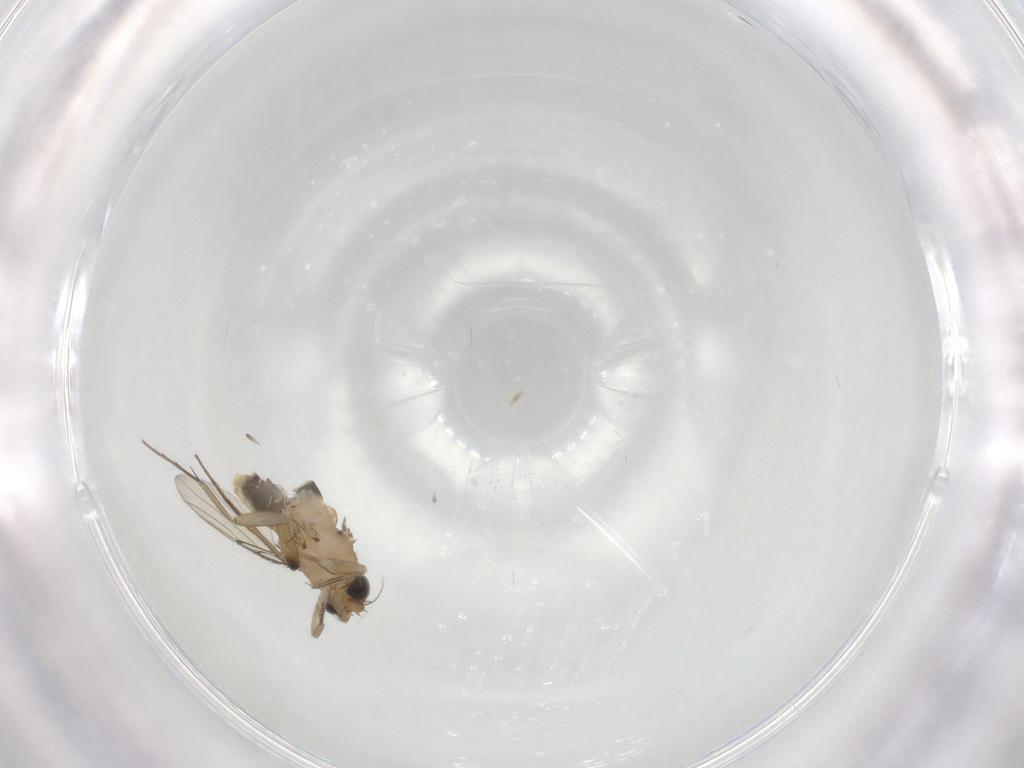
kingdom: Animalia
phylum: Arthropoda
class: Insecta
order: Diptera
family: Phoridae
